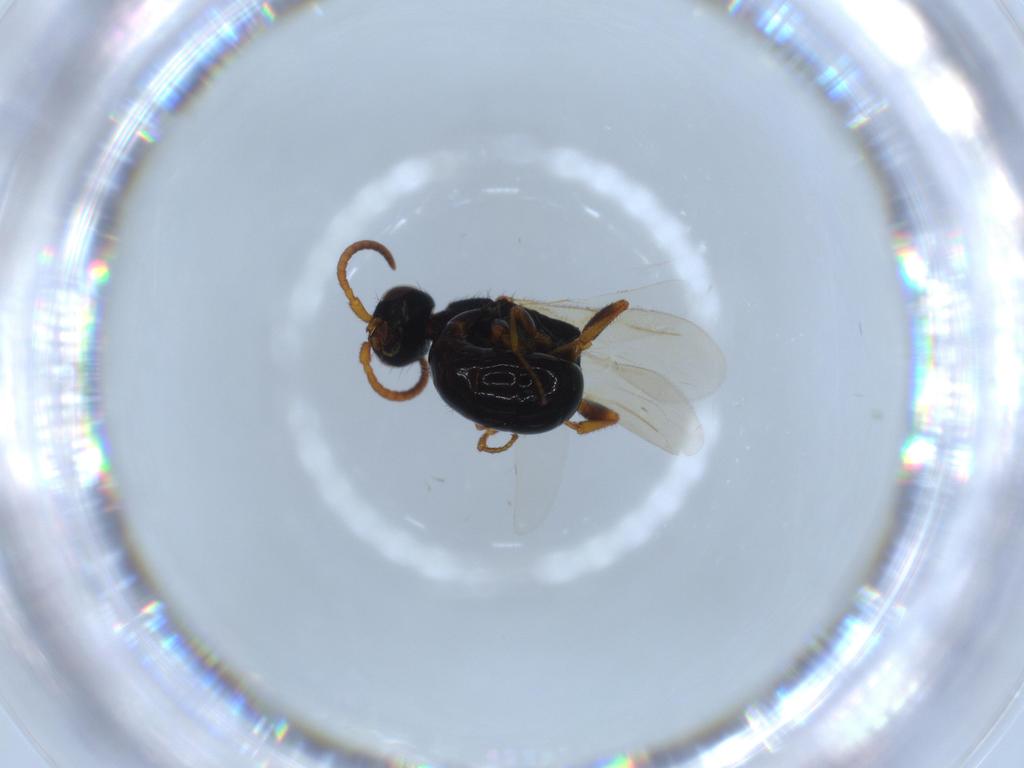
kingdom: Animalia
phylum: Arthropoda
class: Insecta
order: Hymenoptera
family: Bethylidae
